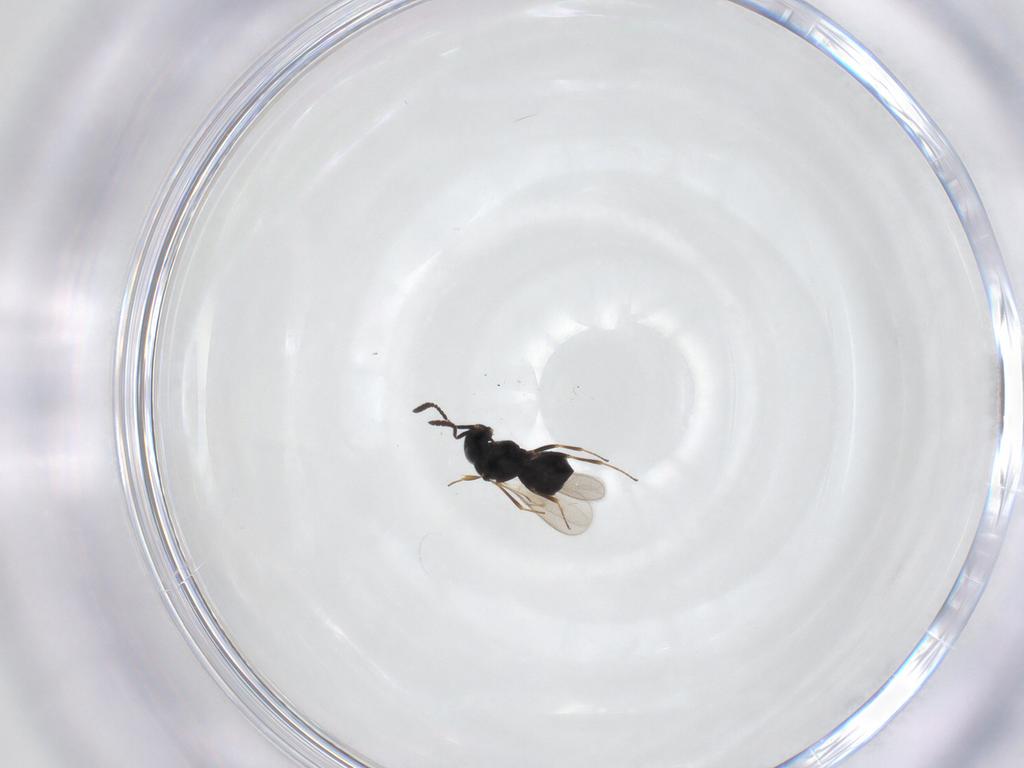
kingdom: Animalia
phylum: Arthropoda
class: Insecta
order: Hymenoptera
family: Scelionidae
